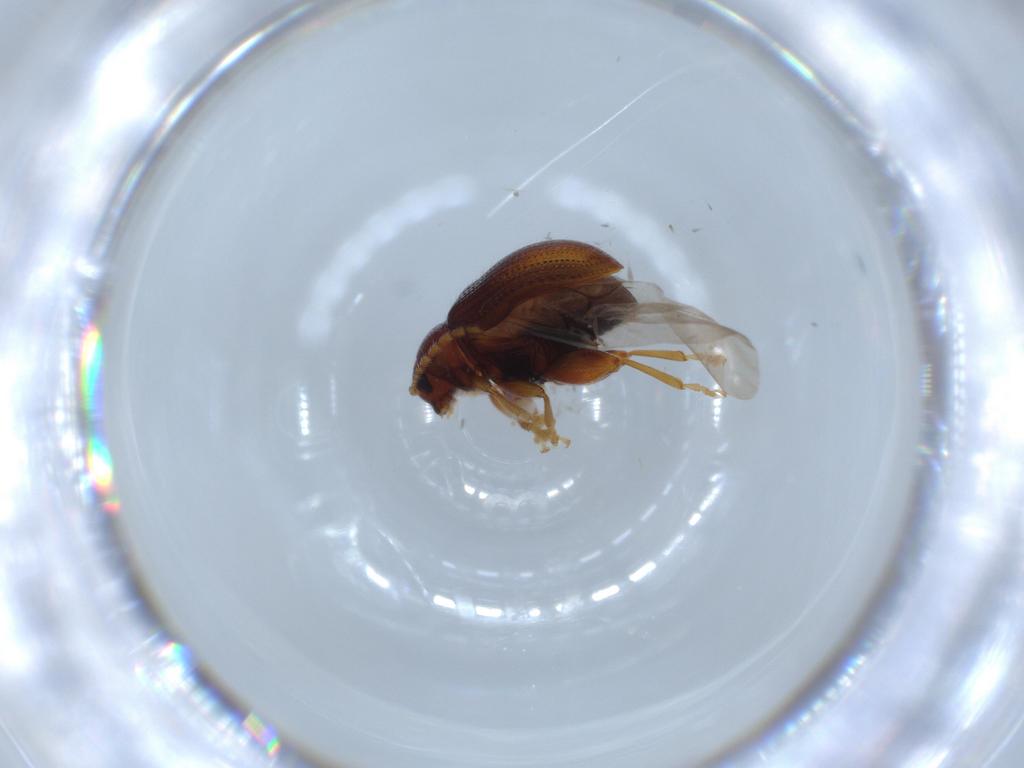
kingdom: Animalia
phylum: Arthropoda
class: Insecta
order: Coleoptera
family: Chrysomelidae
